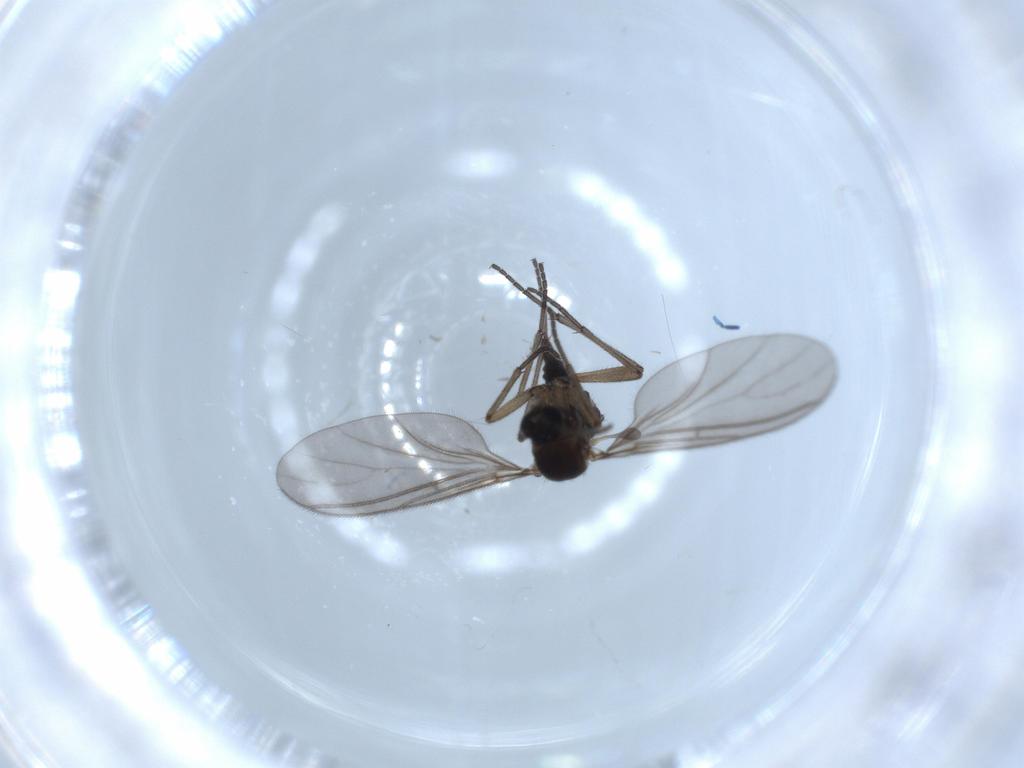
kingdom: Animalia
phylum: Arthropoda
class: Insecta
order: Diptera
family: Sciaridae
